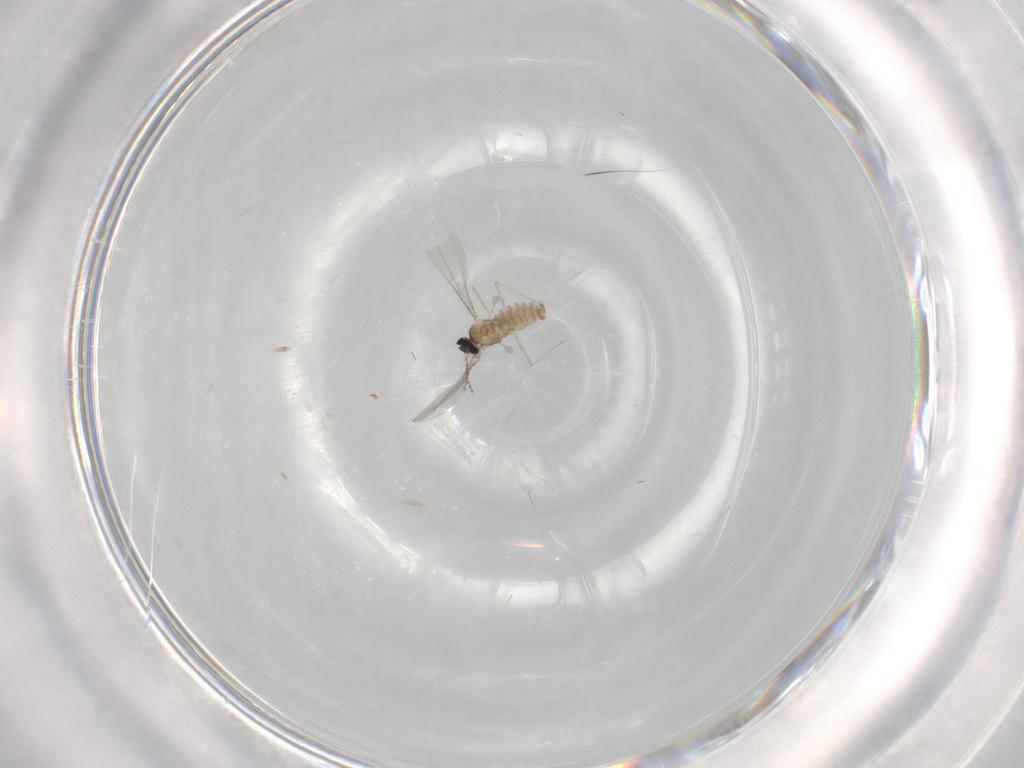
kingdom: Animalia
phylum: Arthropoda
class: Insecta
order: Diptera
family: Cecidomyiidae
